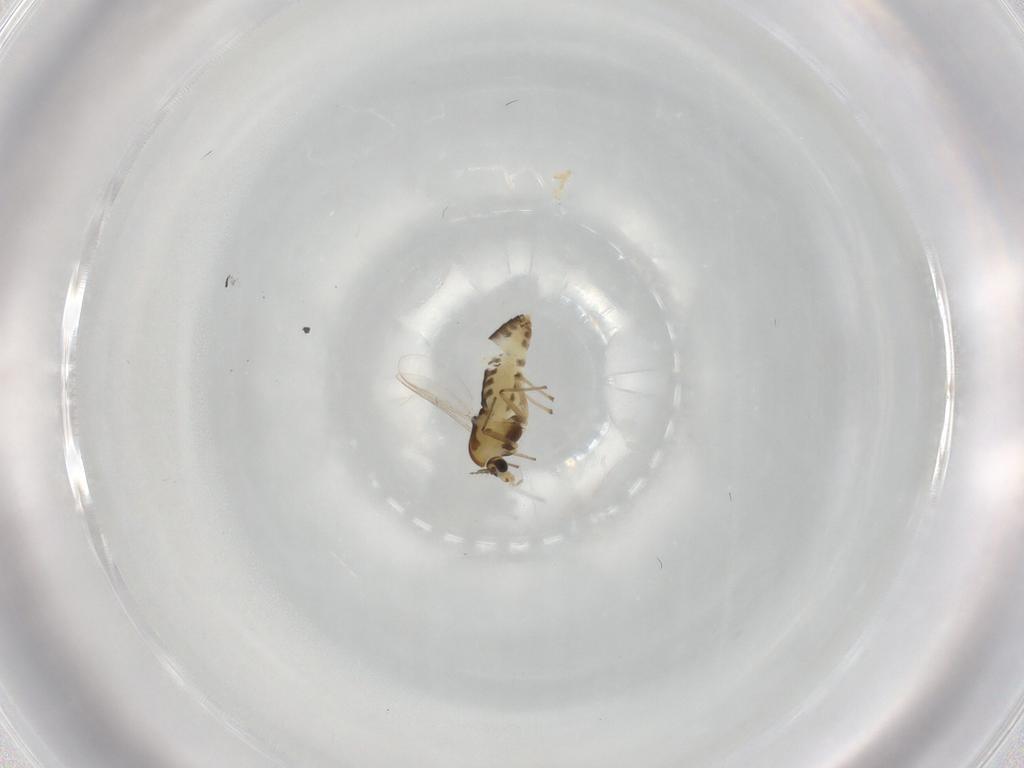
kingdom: Animalia
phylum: Arthropoda
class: Insecta
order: Diptera
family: Chironomidae
